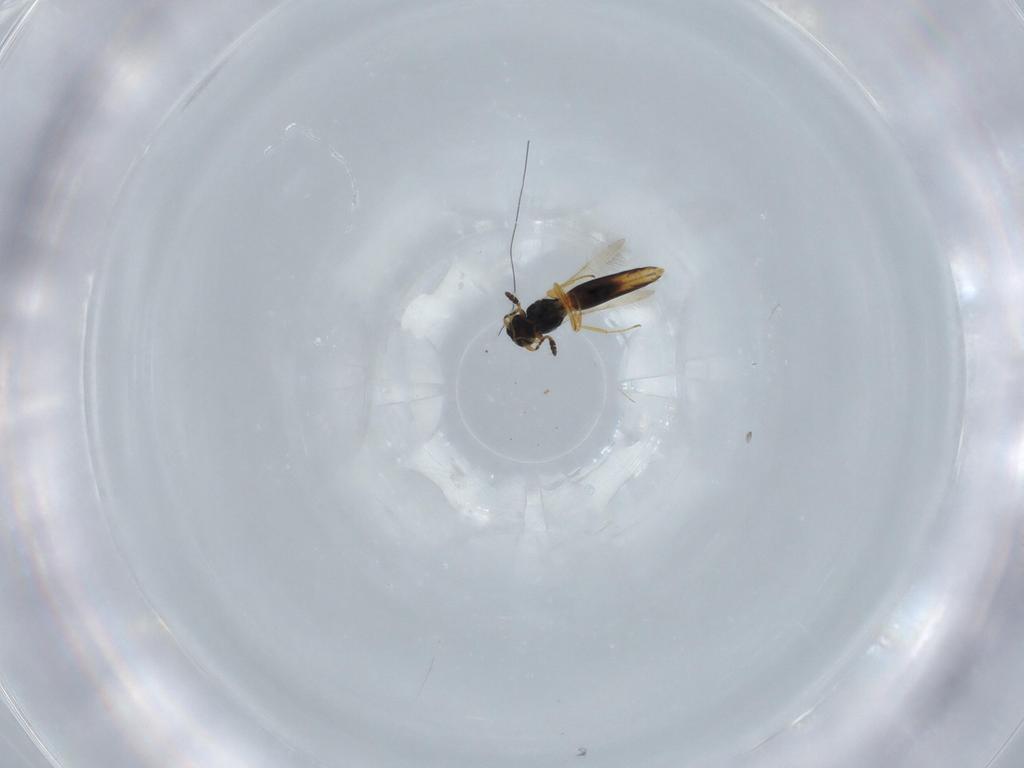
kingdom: Animalia
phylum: Arthropoda
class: Insecta
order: Hymenoptera
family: Scelionidae
